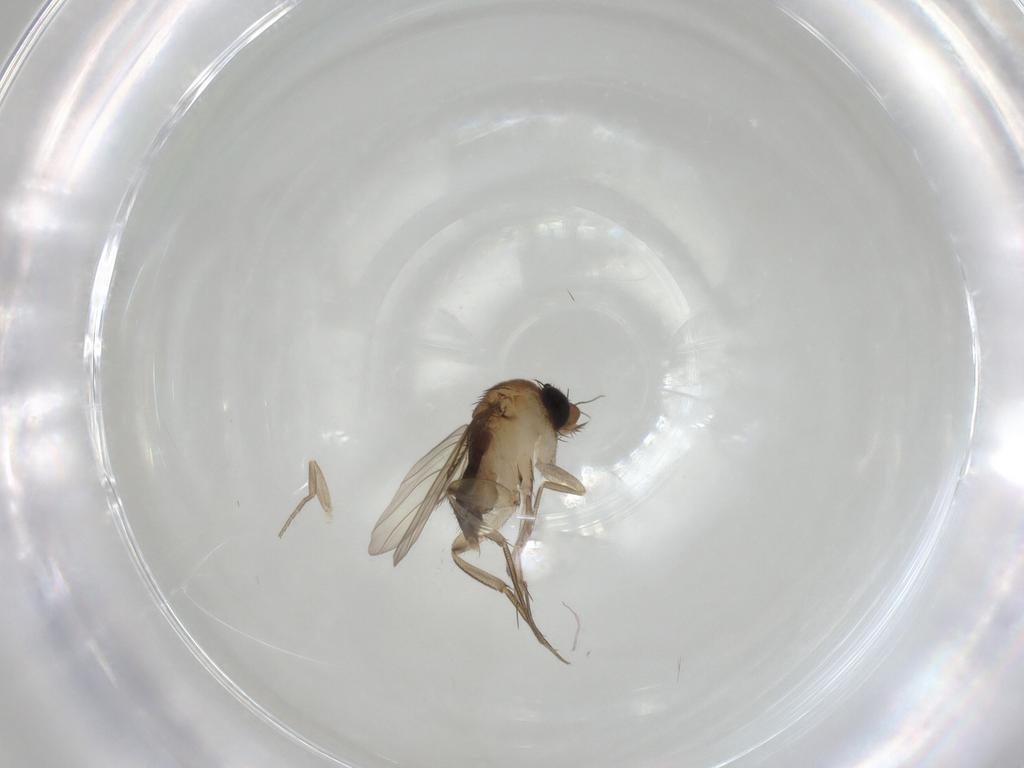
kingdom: Animalia
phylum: Arthropoda
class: Insecta
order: Diptera
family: Phoridae
